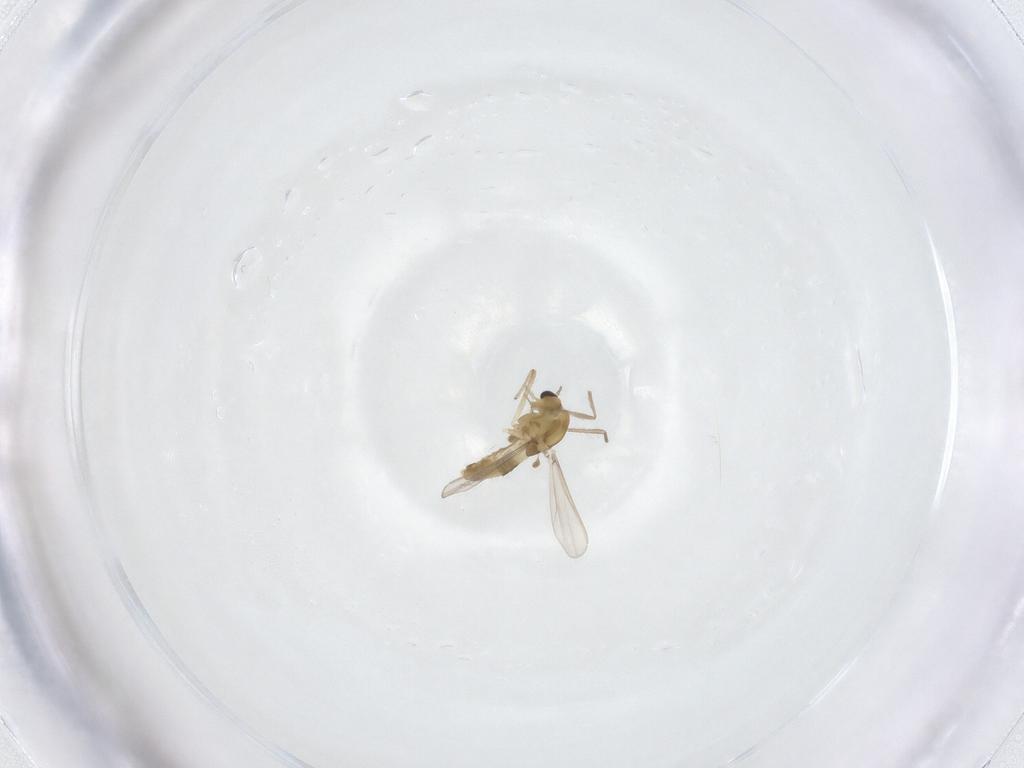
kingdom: Animalia
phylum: Arthropoda
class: Insecta
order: Diptera
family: Chironomidae
